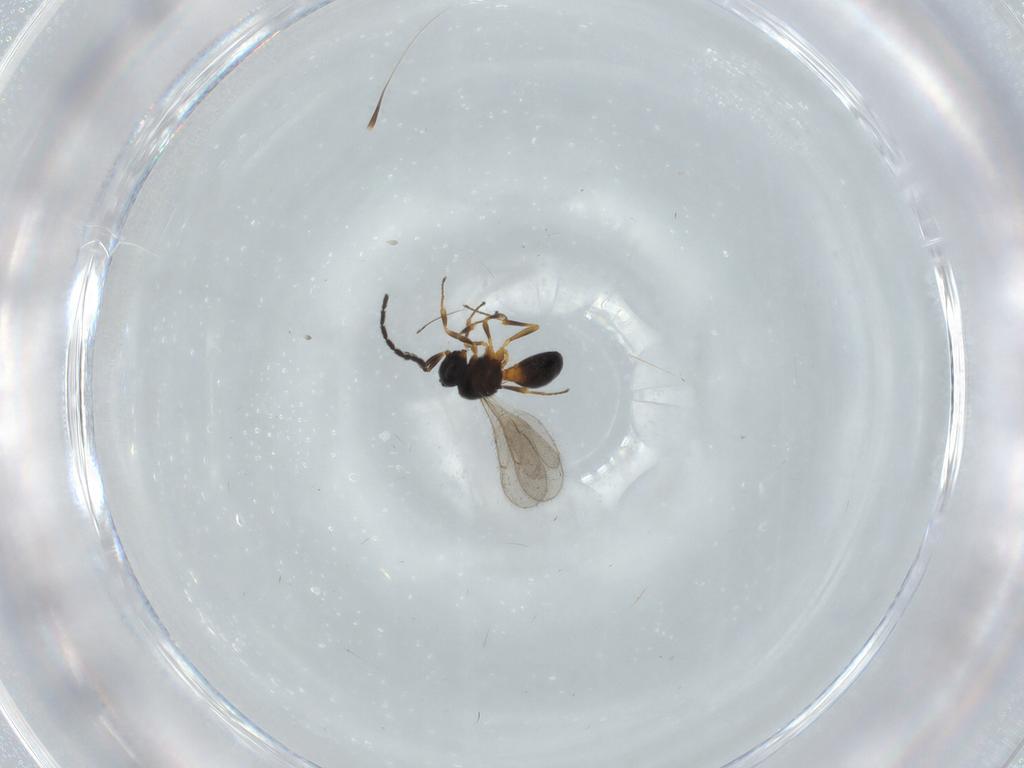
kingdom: Animalia
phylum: Arthropoda
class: Insecta
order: Hymenoptera
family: Scelionidae
